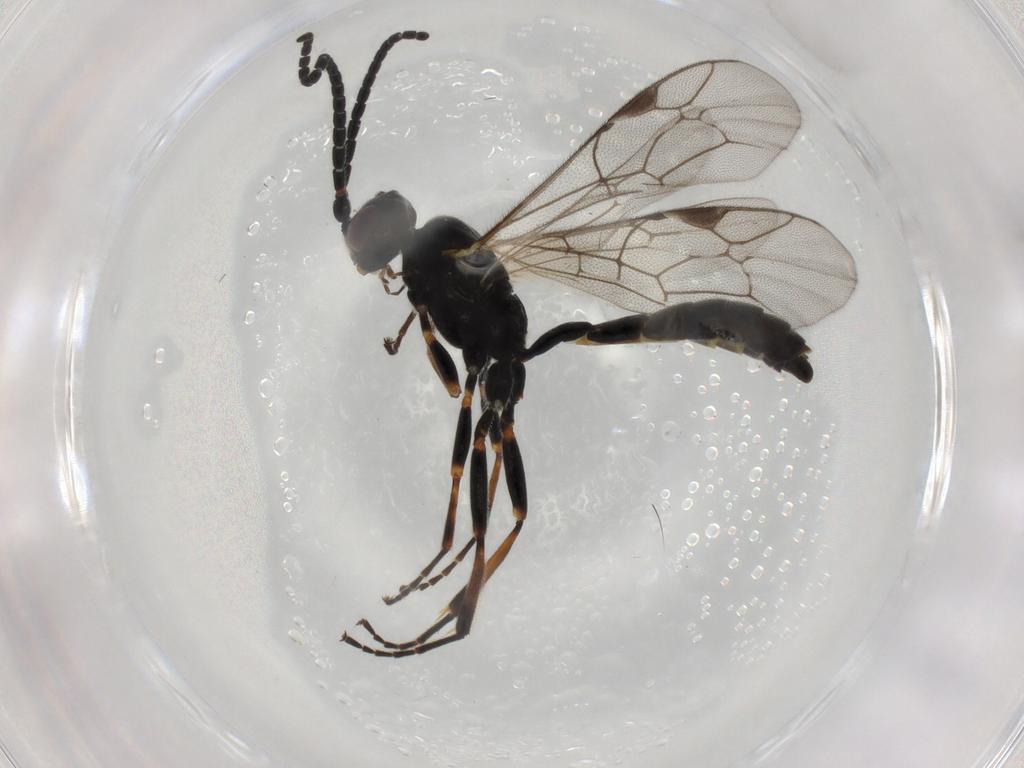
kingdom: Animalia
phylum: Arthropoda
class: Insecta
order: Hymenoptera
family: Ichneumonidae
